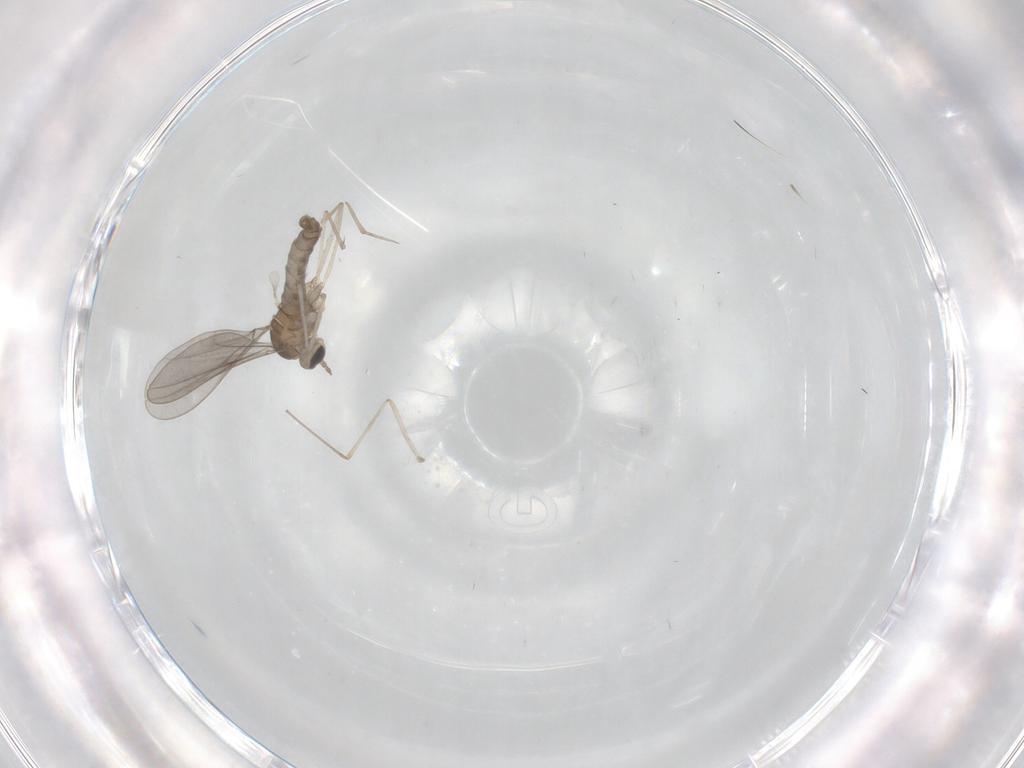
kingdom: Animalia
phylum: Arthropoda
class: Insecta
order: Diptera
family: Cecidomyiidae
